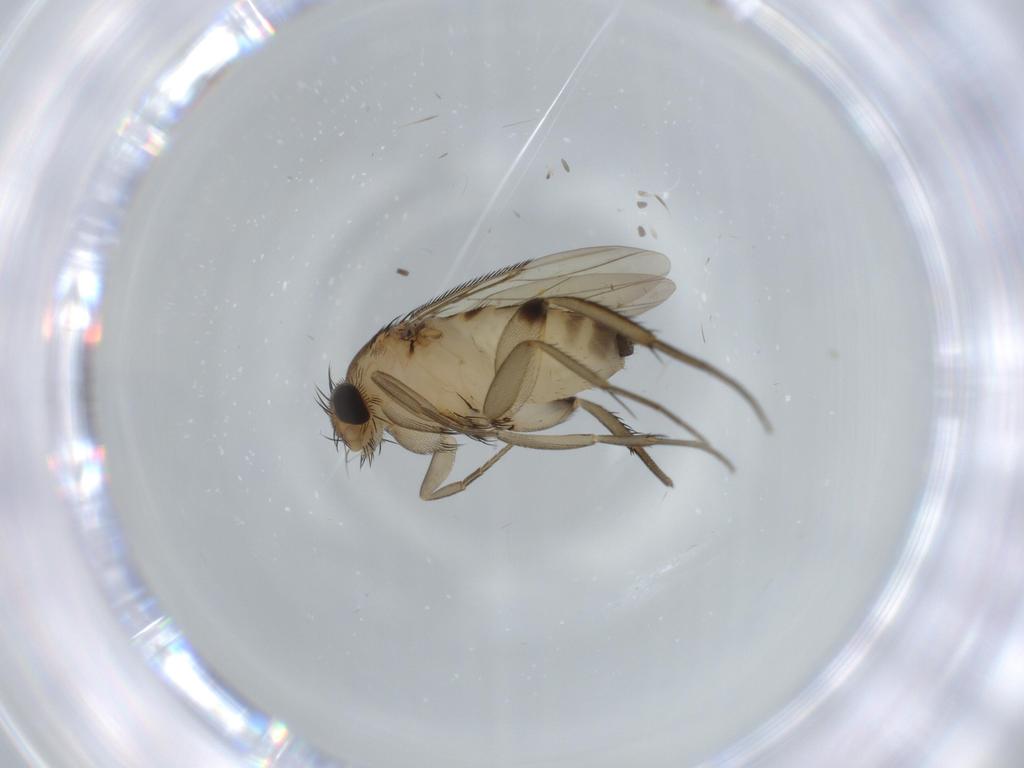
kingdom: Animalia
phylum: Arthropoda
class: Insecta
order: Diptera
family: Phoridae
